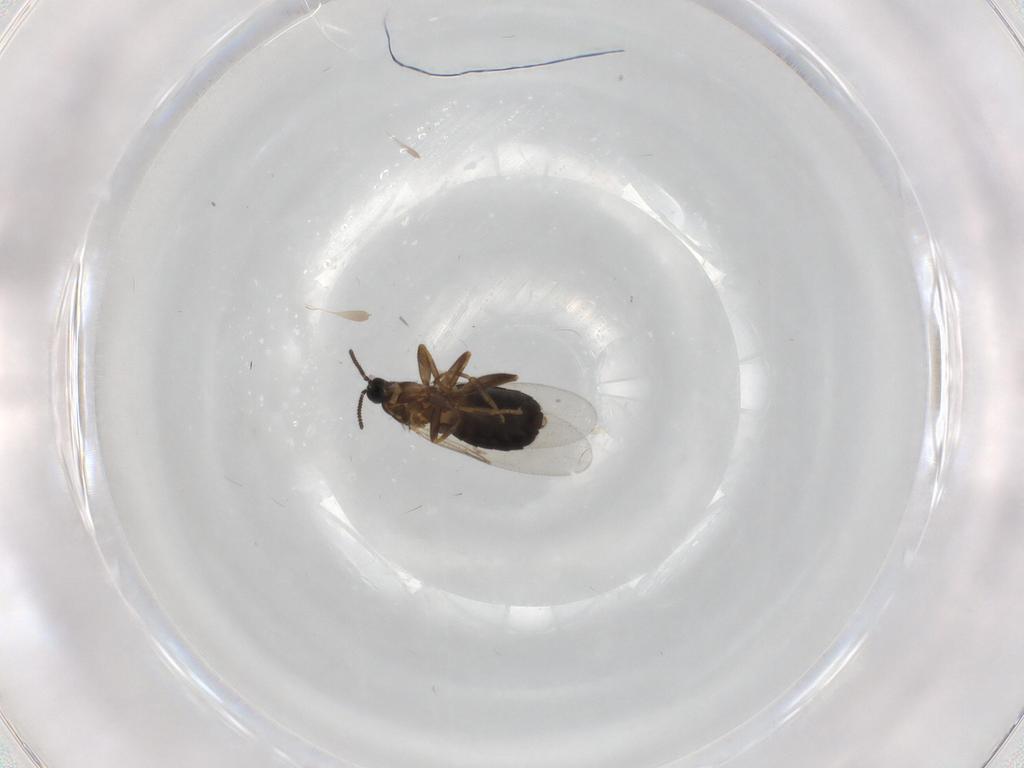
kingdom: Animalia
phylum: Arthropoda
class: Insecta
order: Diptera
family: Scatopsidae
